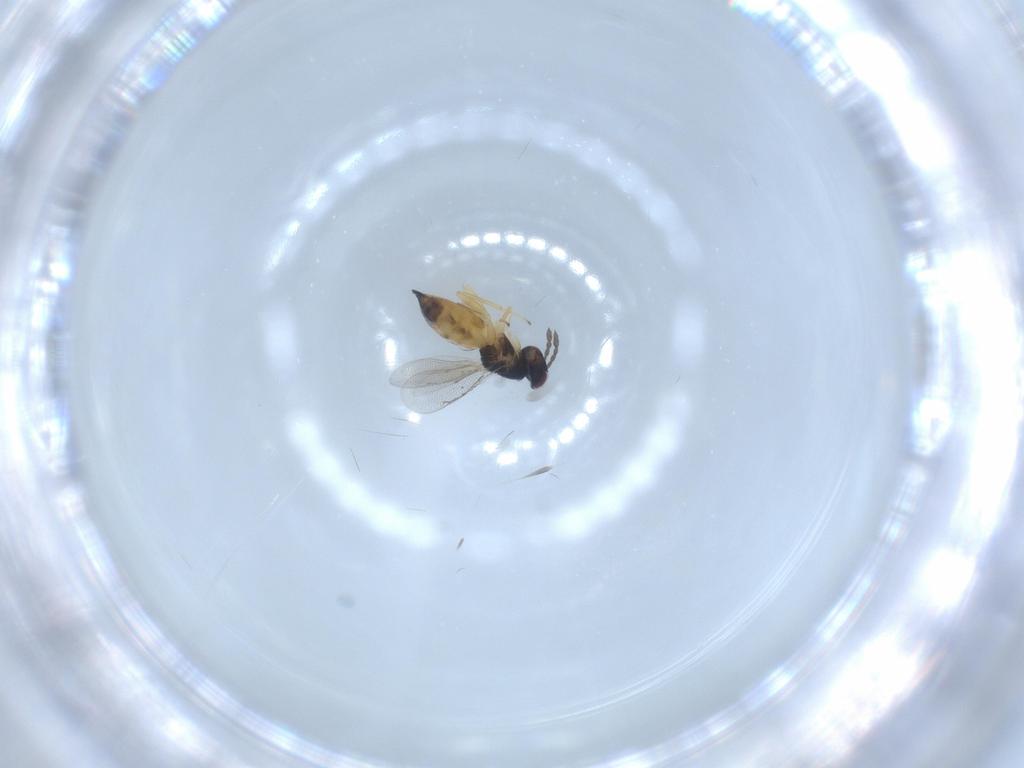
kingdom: Animalia
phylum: Arthropoda
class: Insecta
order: Hymenoptera
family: Eulophidae
